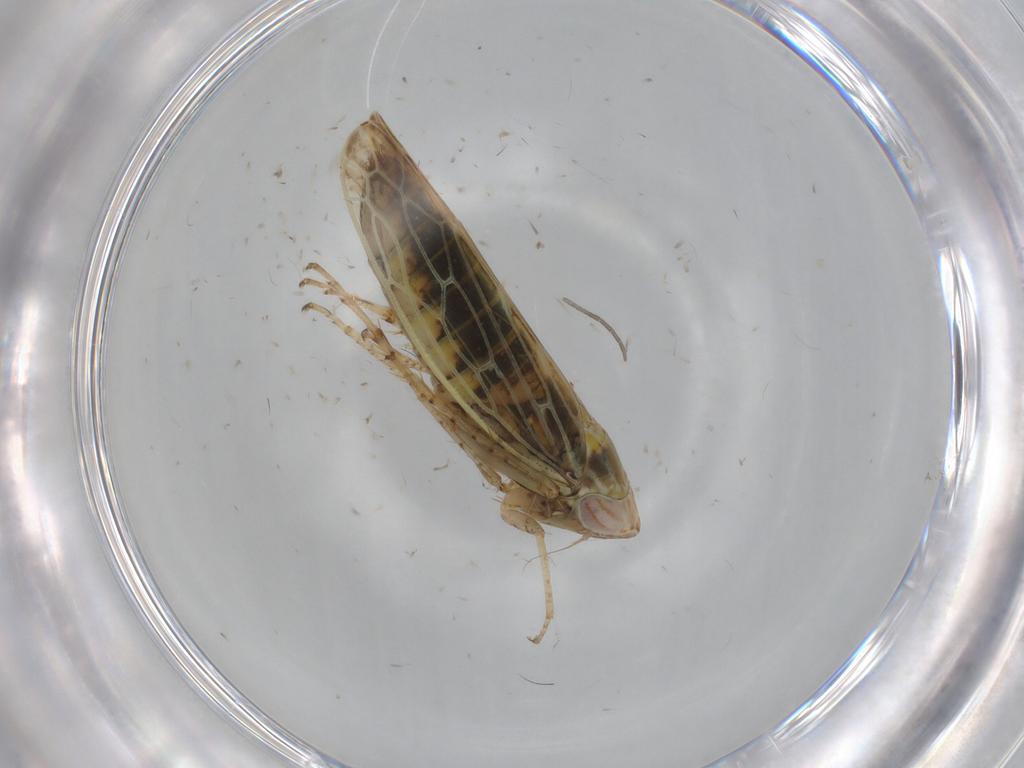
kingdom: Animalia
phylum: Arthropoda
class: Insecta
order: Hemiptera
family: Cicadellidae
